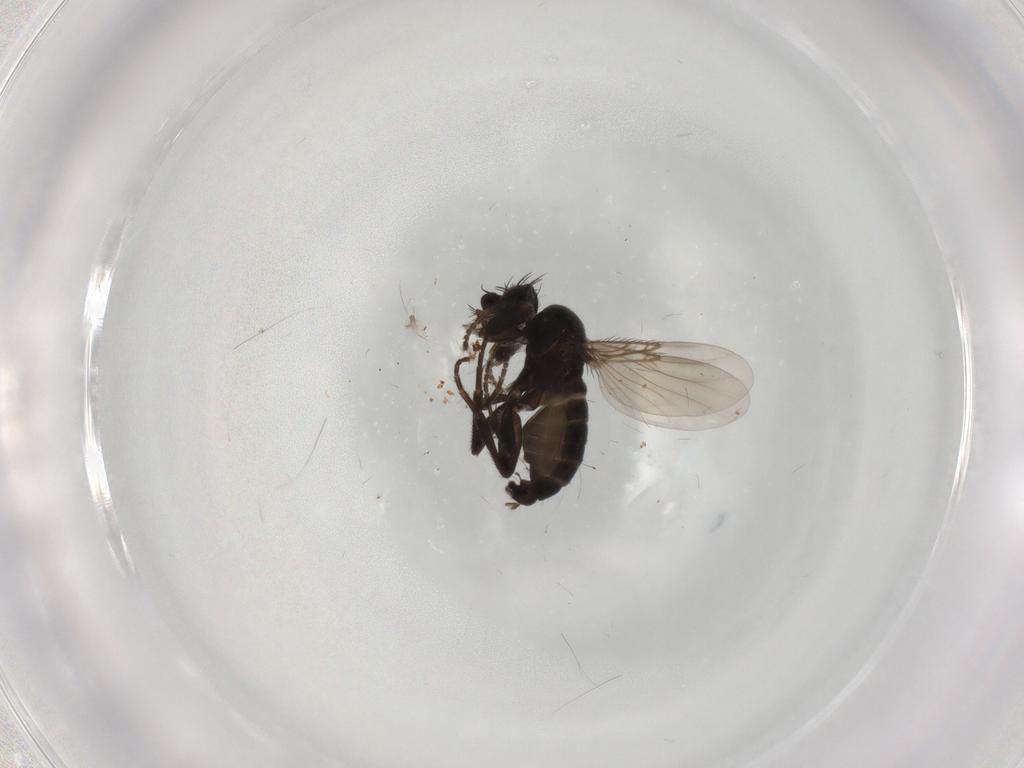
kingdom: Animalia
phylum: Arthropoda
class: Insecta
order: Diptera
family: Phoridae
